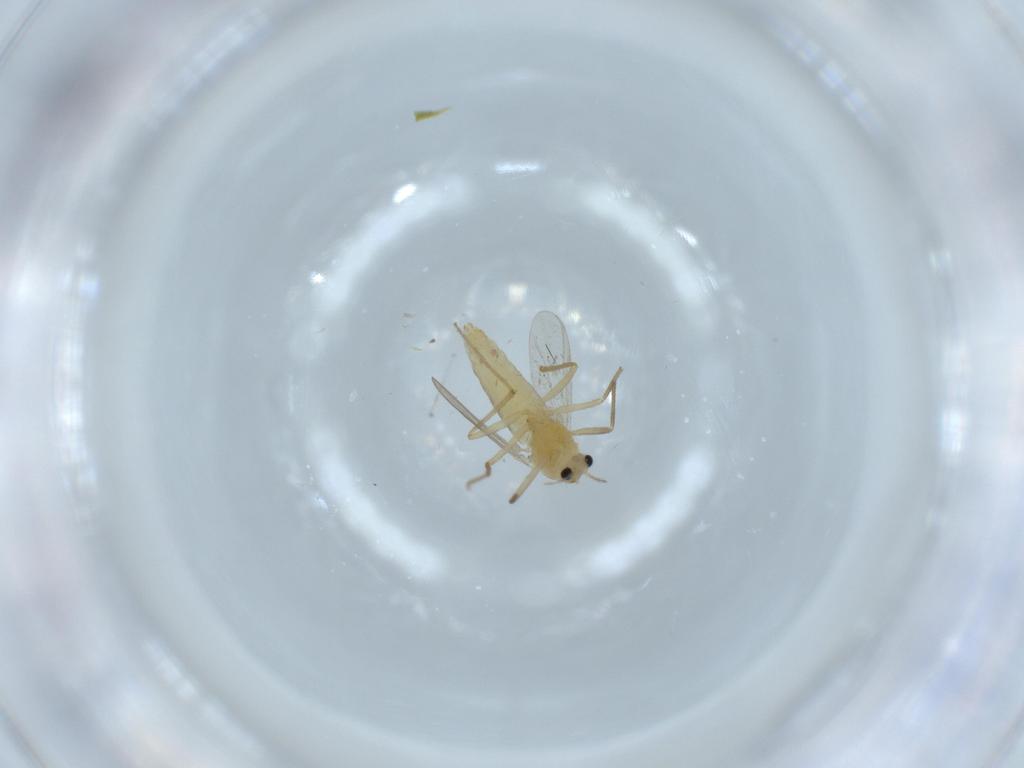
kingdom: Animalia
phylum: Arthropoda
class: Insecta
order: Diptera
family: Chironomidae
